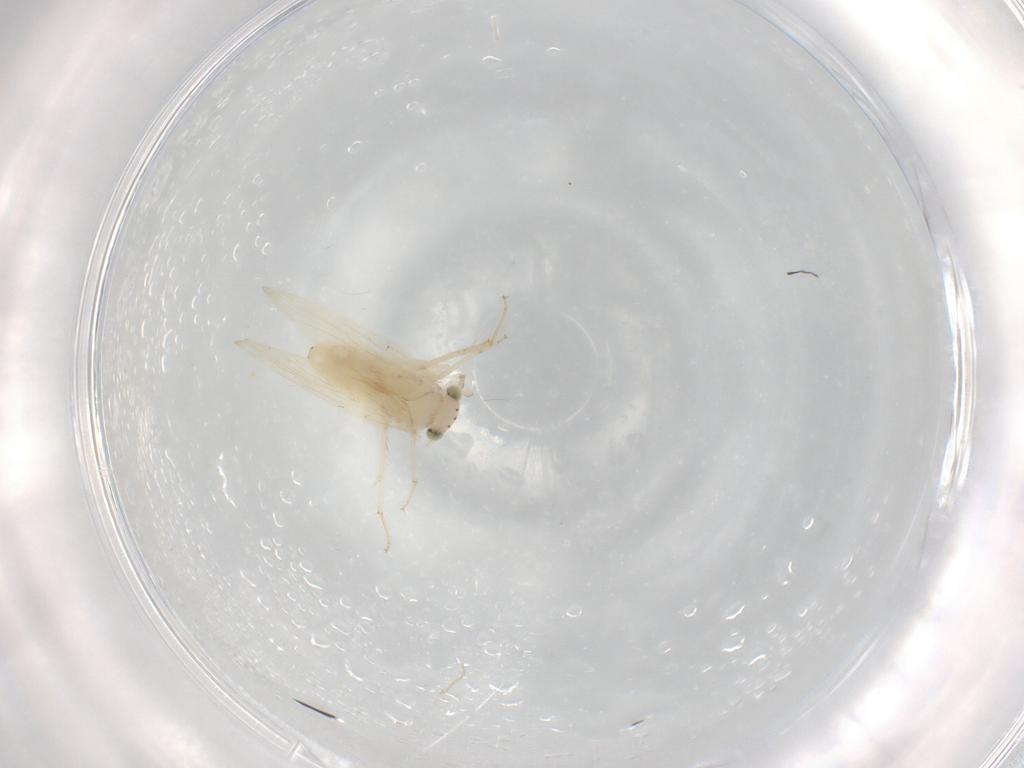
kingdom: Animalia
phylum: Arthropoda
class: Insecta
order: Psocodea
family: Lepidopsocidae
